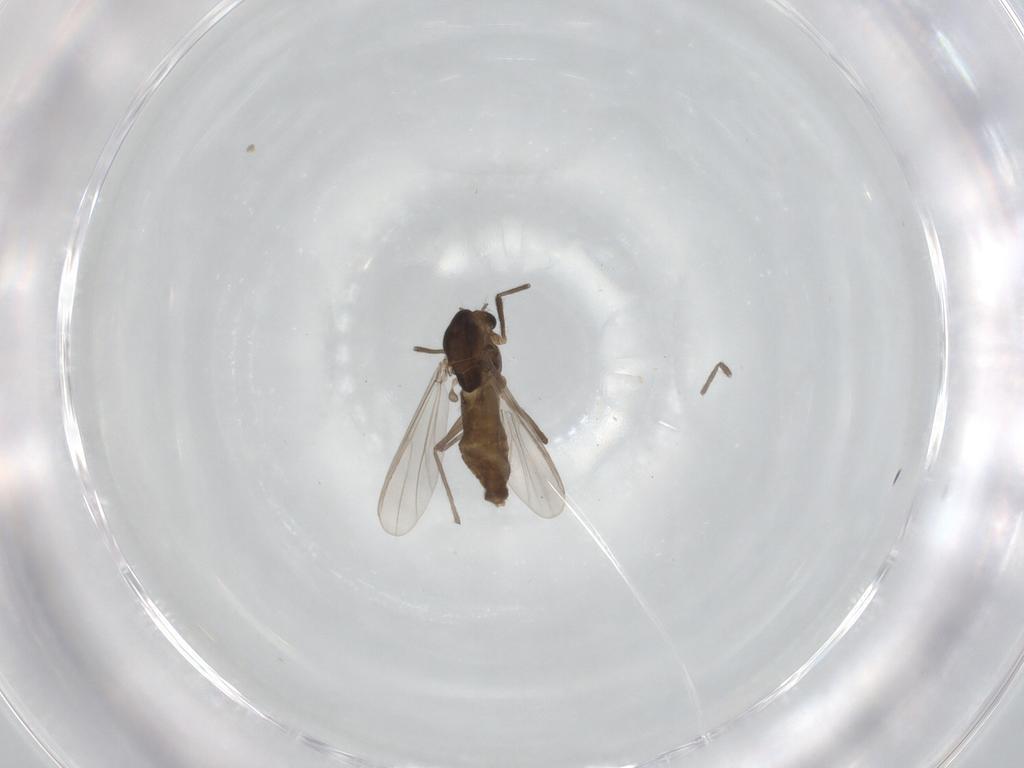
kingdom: Animalia
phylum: Arthropoda
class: Insecta
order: Diptera
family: Chironomidae
